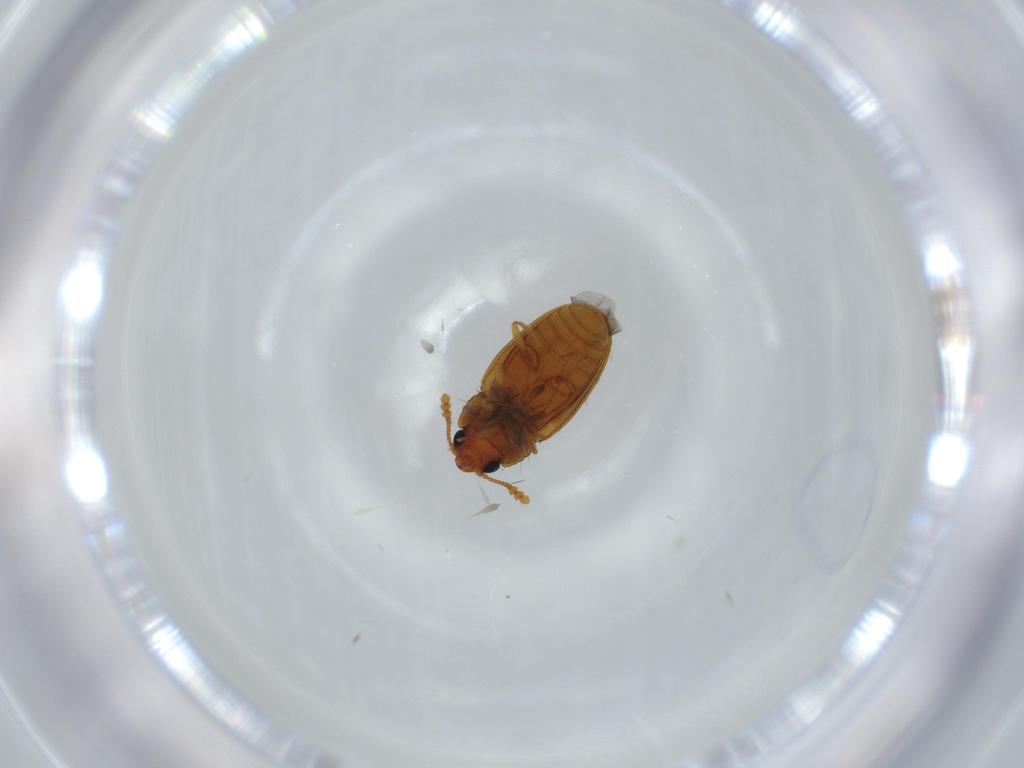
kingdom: Animalia
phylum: Arthropoda
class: Insecta
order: Coleoptera
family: Erotylidae
